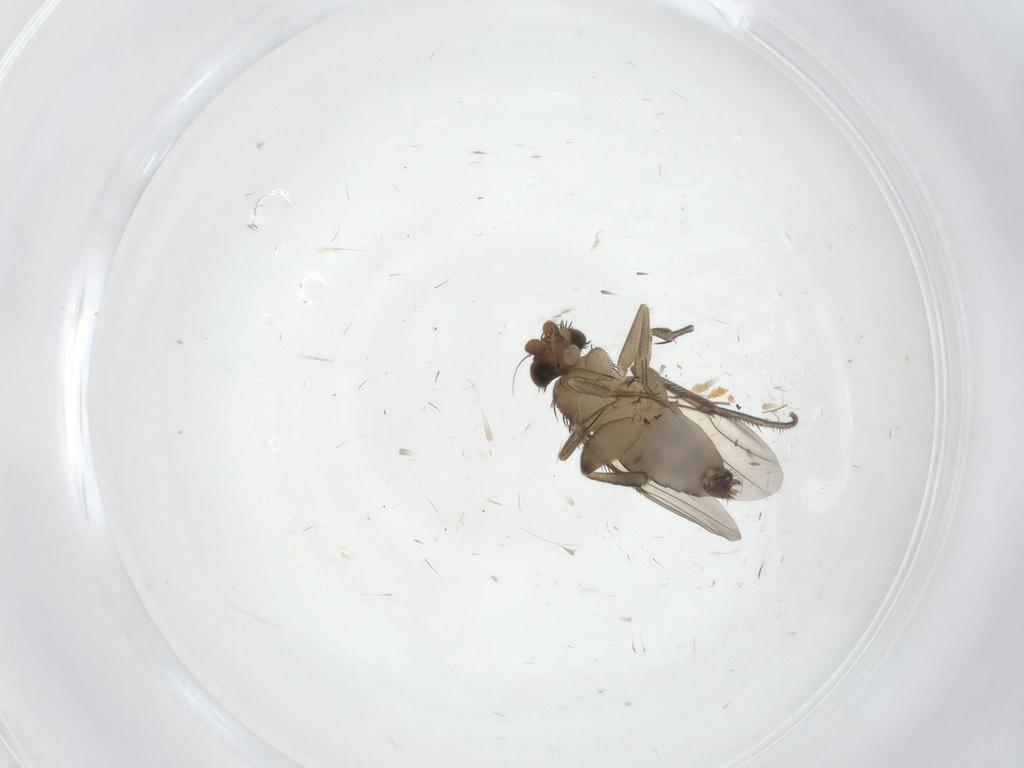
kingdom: Animalia
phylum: Arthropoda
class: Insecta
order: Diptera
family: Phoridae
